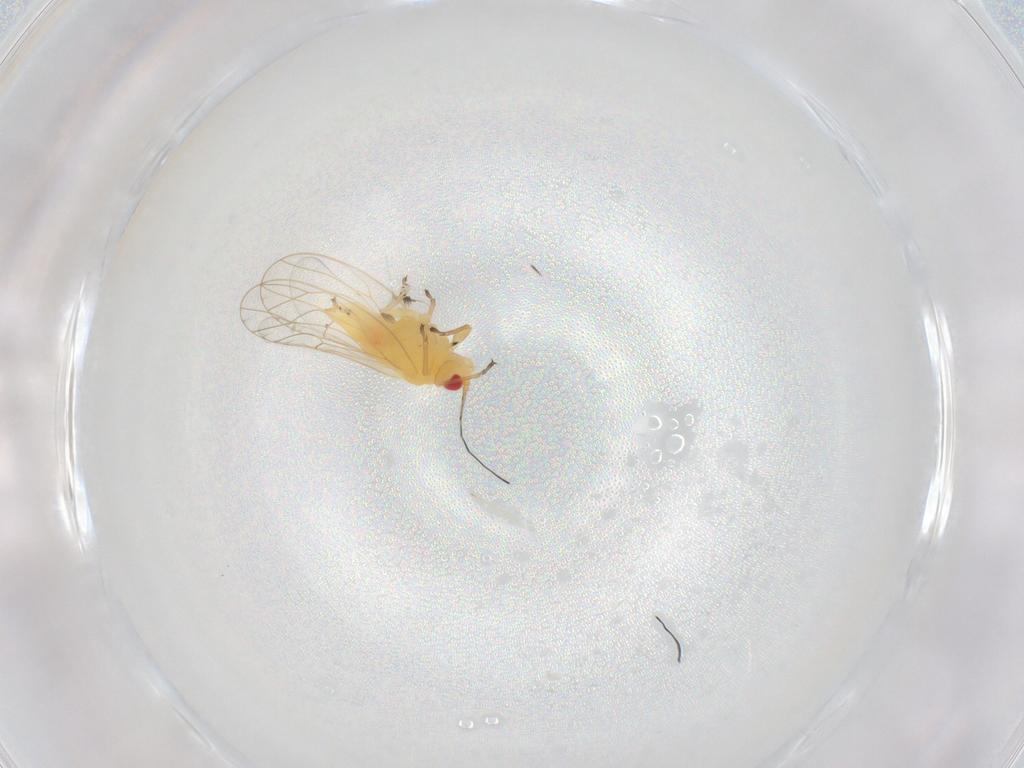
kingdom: Animalia
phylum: Arthropoda
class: Insecta
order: Hemiptera
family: Psyllidae
